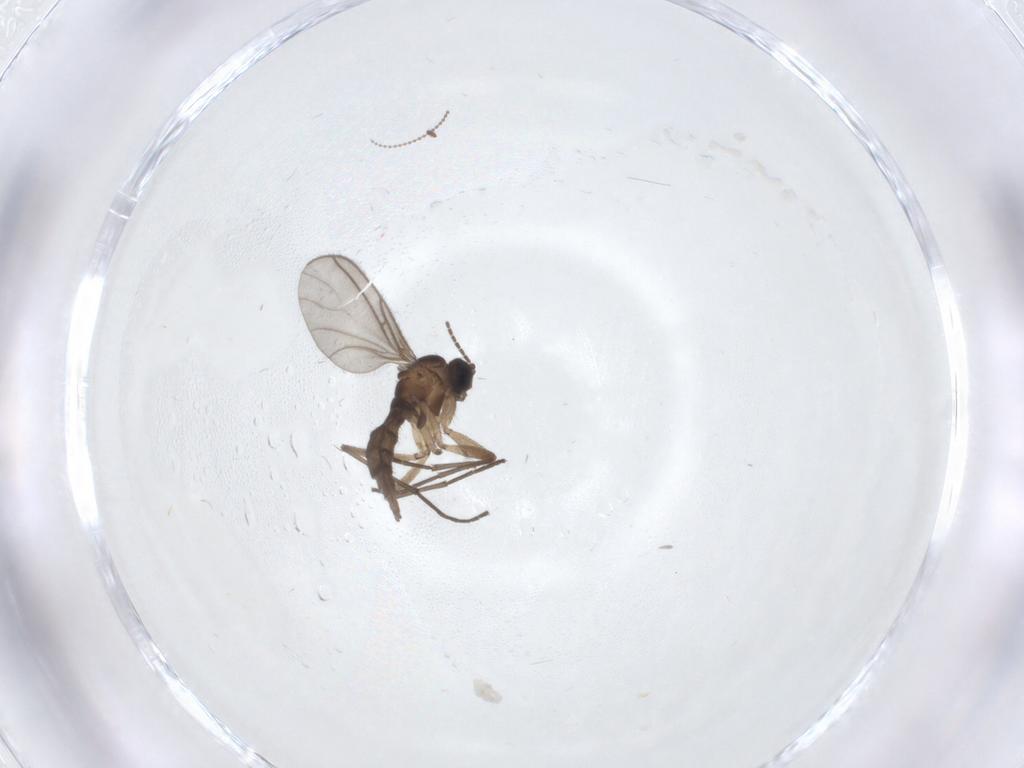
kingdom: Animalia
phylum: Arthropoda
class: Insecta
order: Diptera
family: Cecidomyiidae
